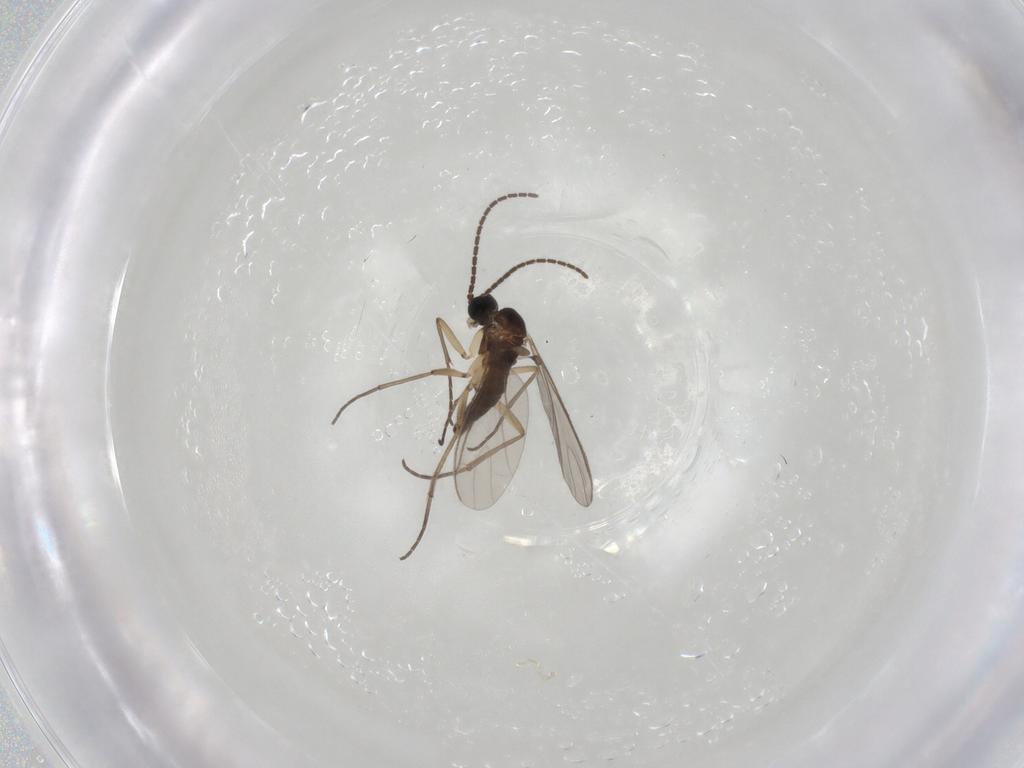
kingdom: Animalia
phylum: Arthropoda
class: Insecta
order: Diptera
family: Sciaridae
